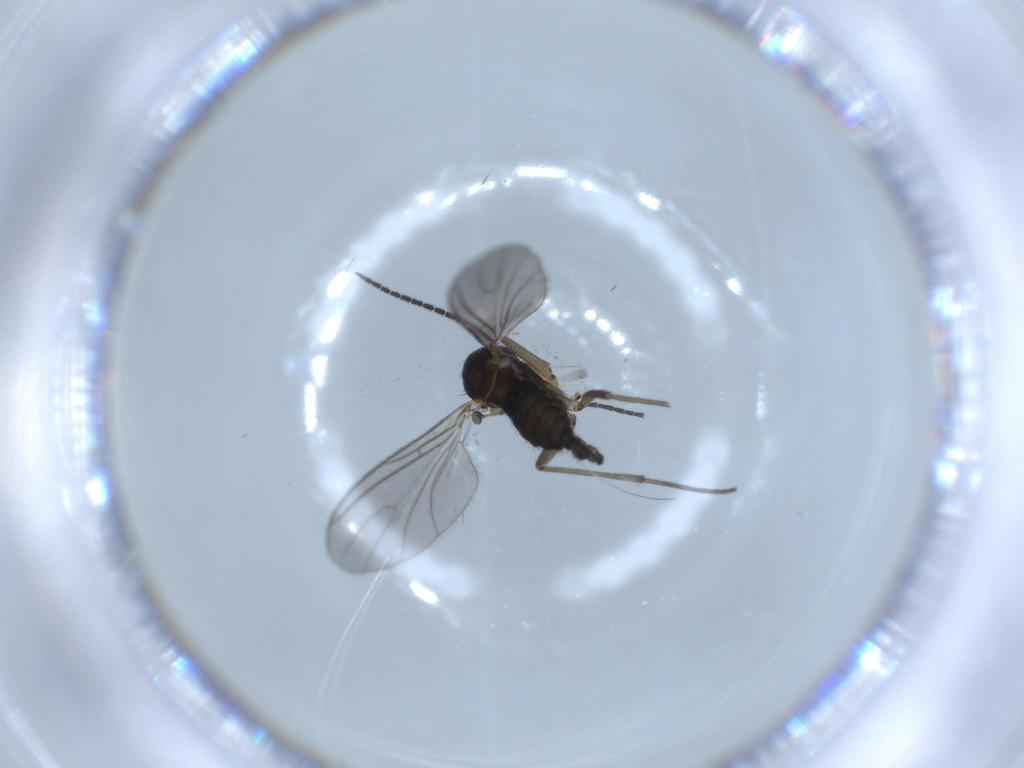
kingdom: Animalia
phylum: Arthropoda
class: Insecta
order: Diptera
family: Sciaridae
